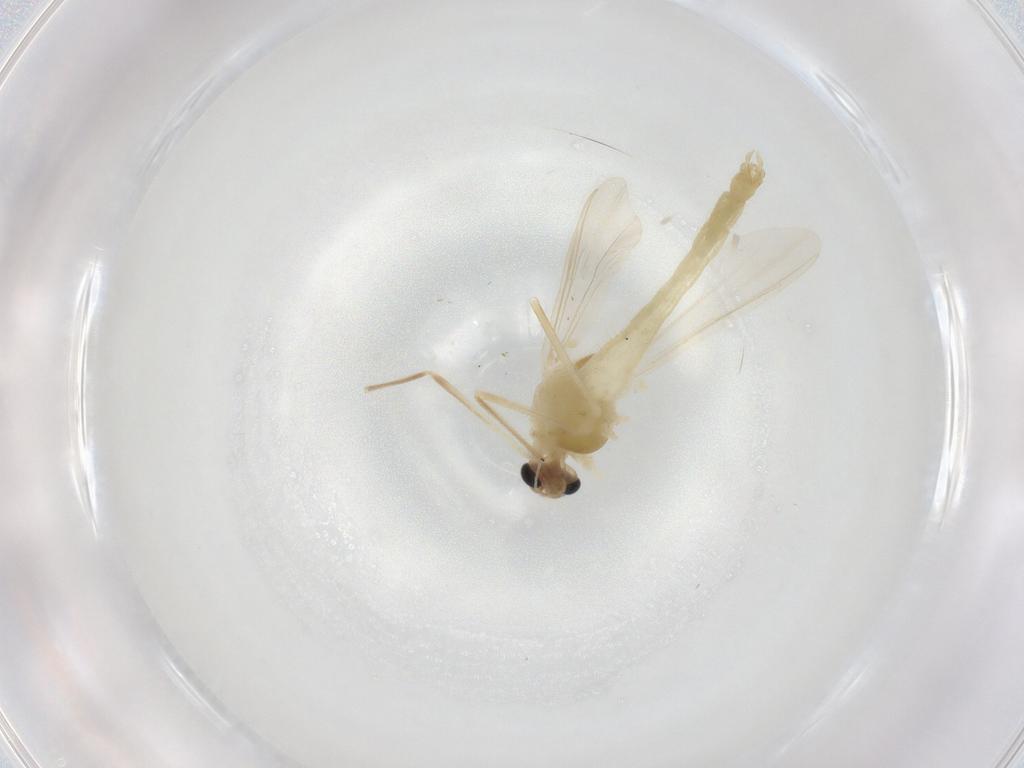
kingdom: Animalia
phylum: Arthropoda
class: Insecta
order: Diptera
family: Chironomidae
